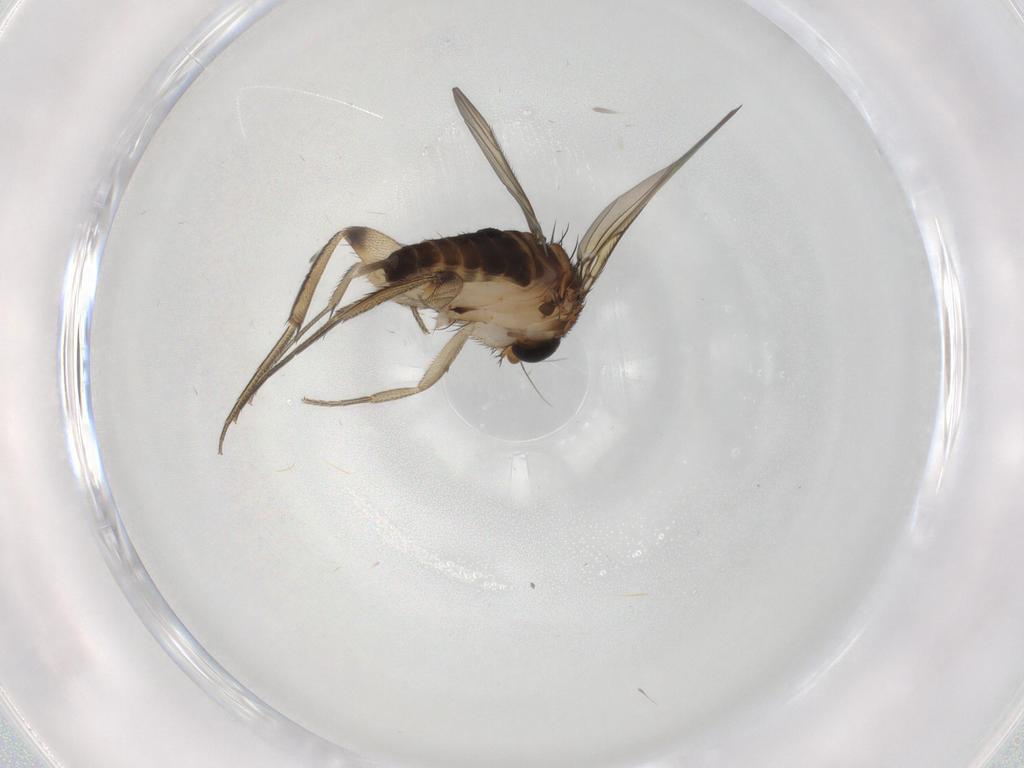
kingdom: Animalia
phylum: Arthropoda
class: Insecta
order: Diptera
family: Phoridae
